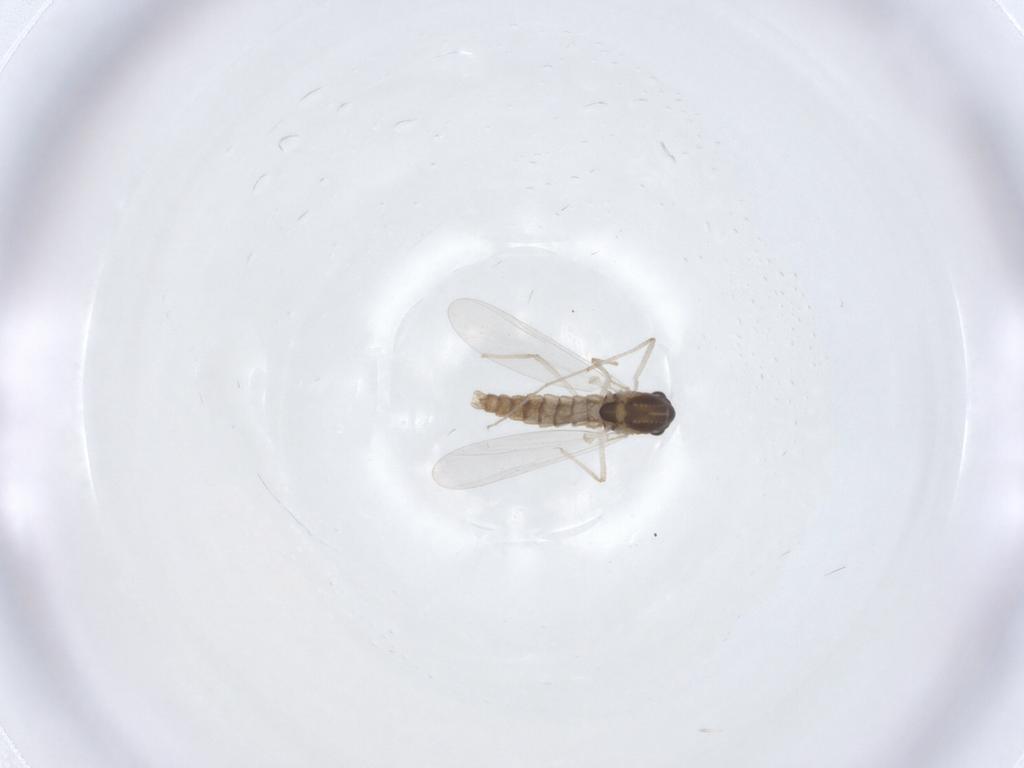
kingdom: Animalia
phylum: Arthropoda
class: Insecta
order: Diptera
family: Chironomidae
